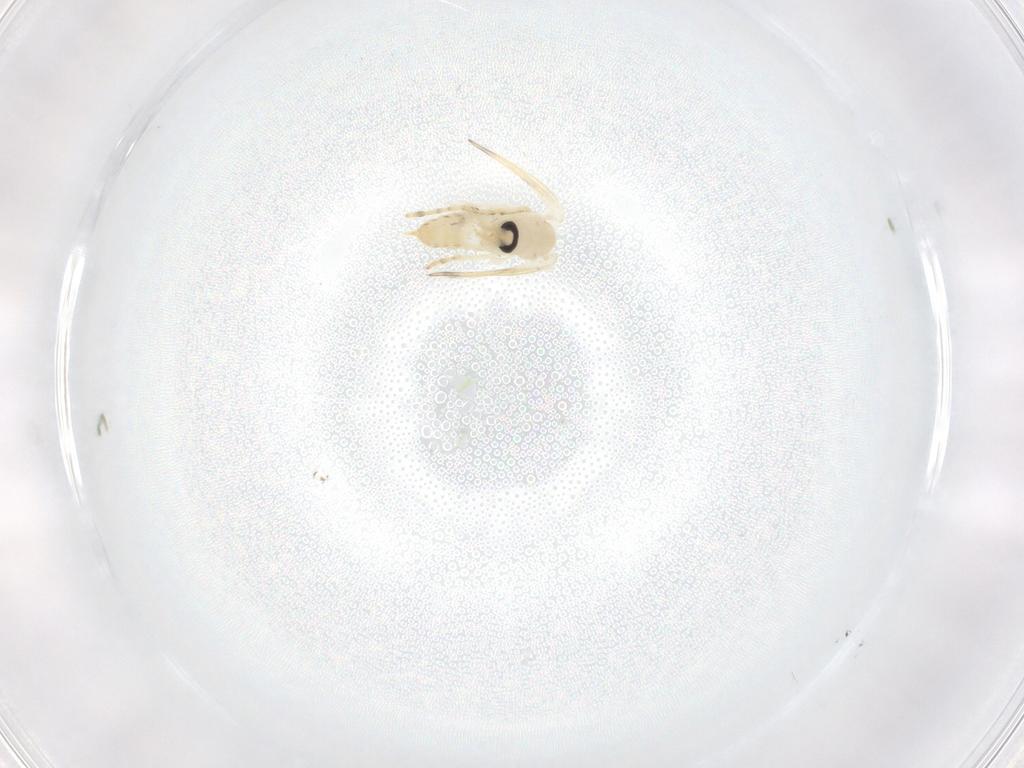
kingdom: Animalia
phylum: Arthropoda
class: Insecta
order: Diptera
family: Psychodidae
